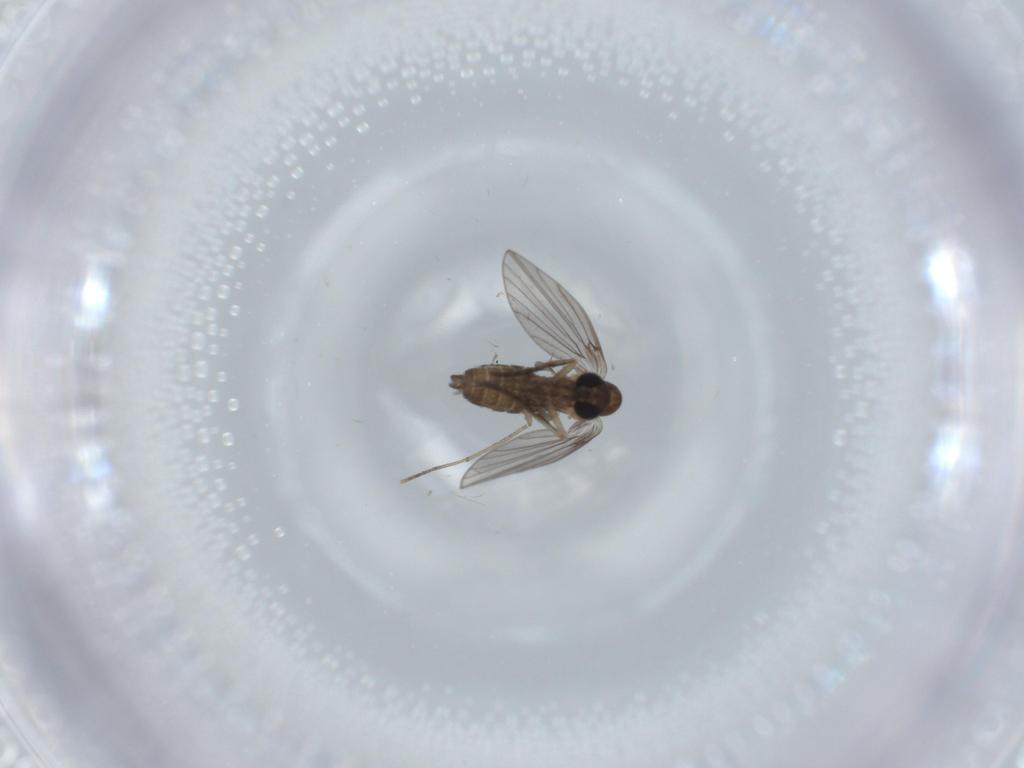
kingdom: Animalia
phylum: Arthropoda
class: Insecta
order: Diptera
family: Psychodidae
